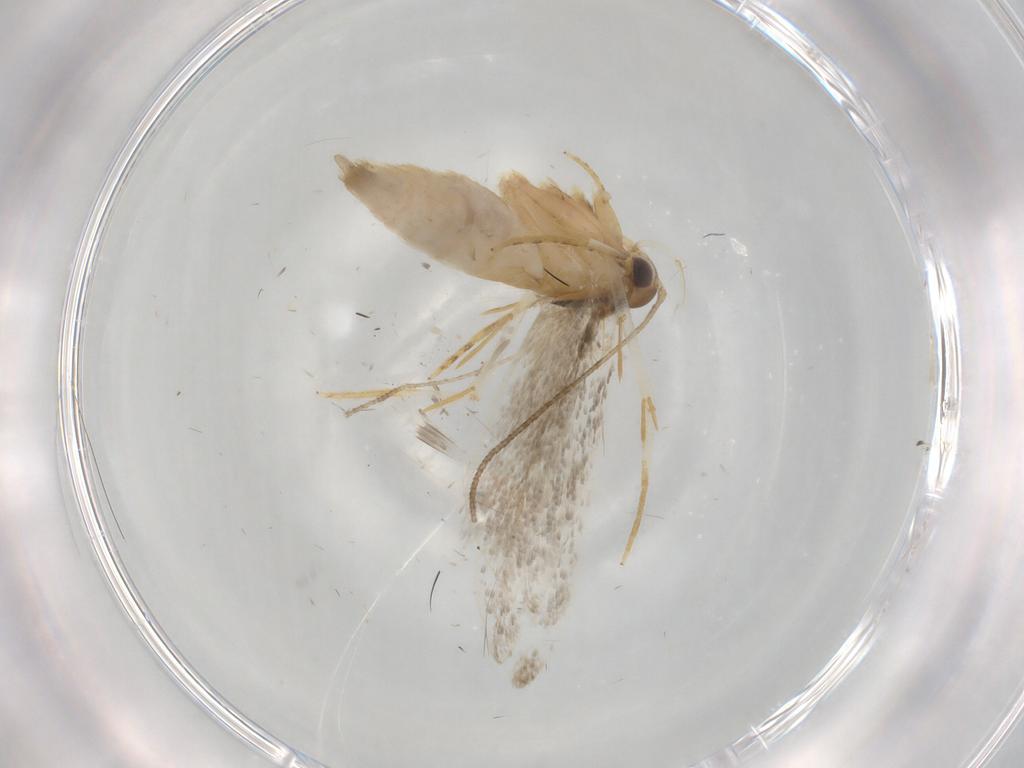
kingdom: Animalia
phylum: Arthropoda
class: Insecta
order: Lepidoptera
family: Autostichidae
